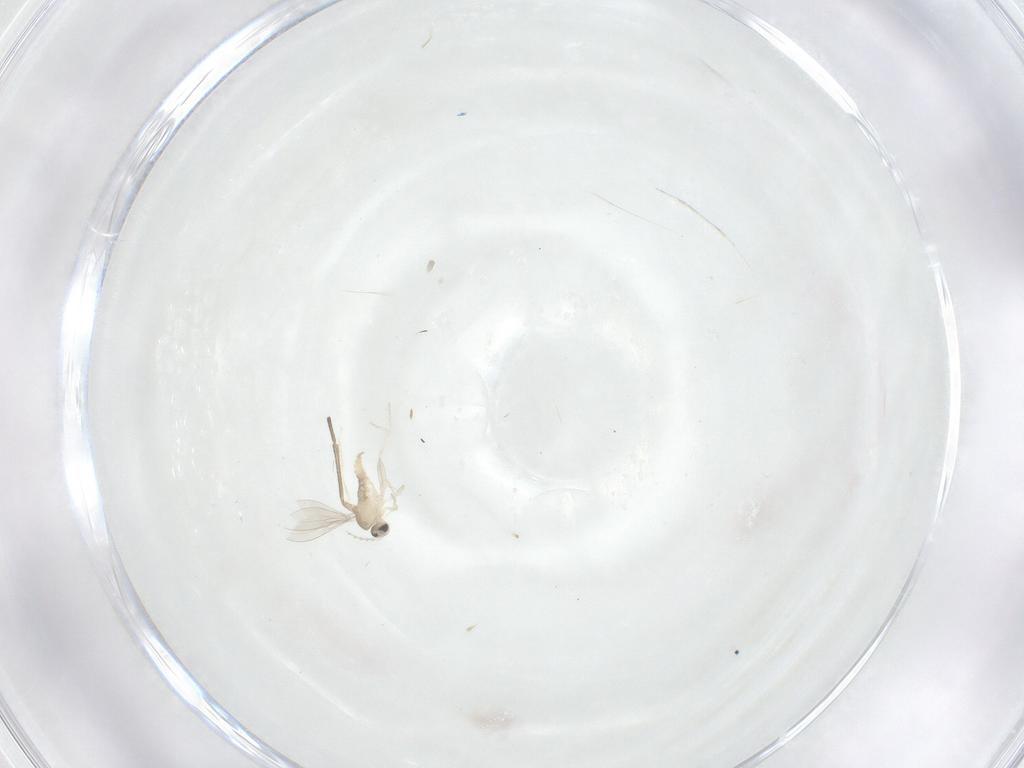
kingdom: Animalia
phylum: Arthropoda
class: Insecta
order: Diptera
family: Cecidomyiidae
